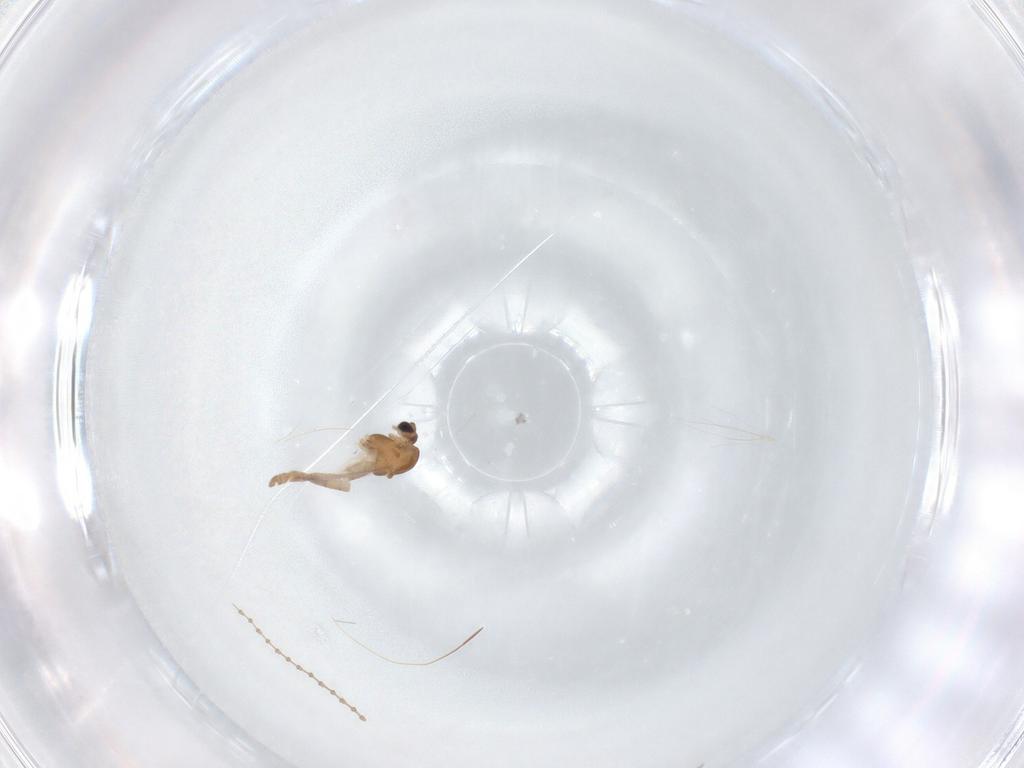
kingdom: Animalia
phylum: Arthropoda
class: Insecta
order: Diptera
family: Chironomidae
